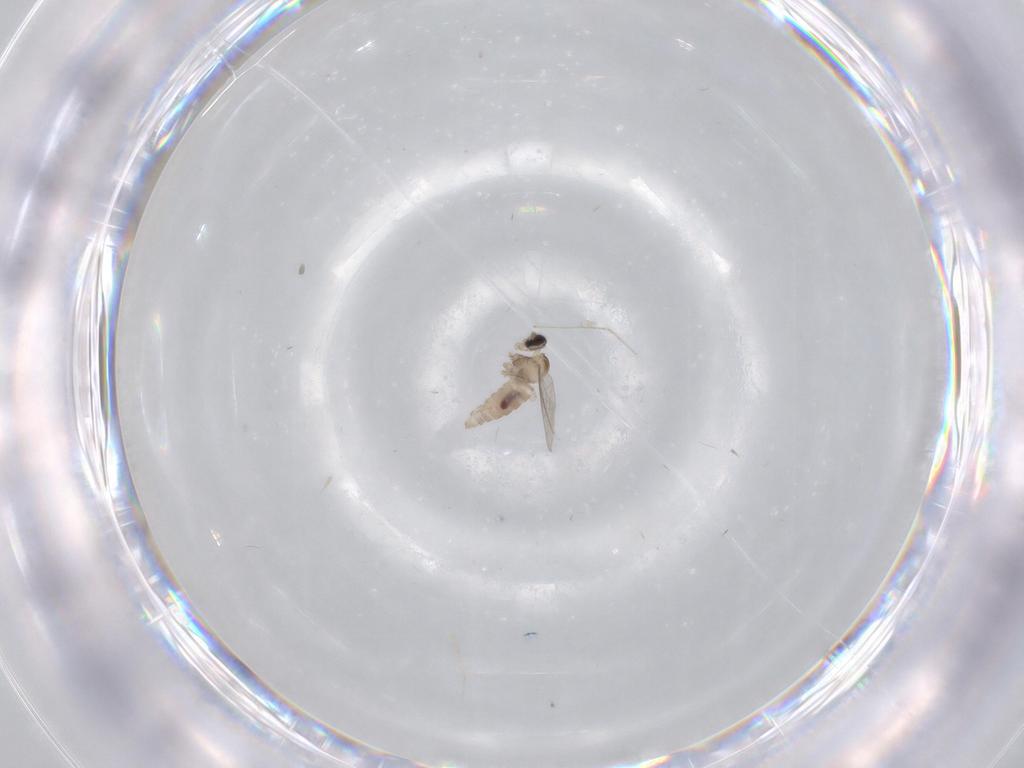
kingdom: Animalia
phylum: Arthropoda
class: Insecta
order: Diptera
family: Cecidomyiidae
